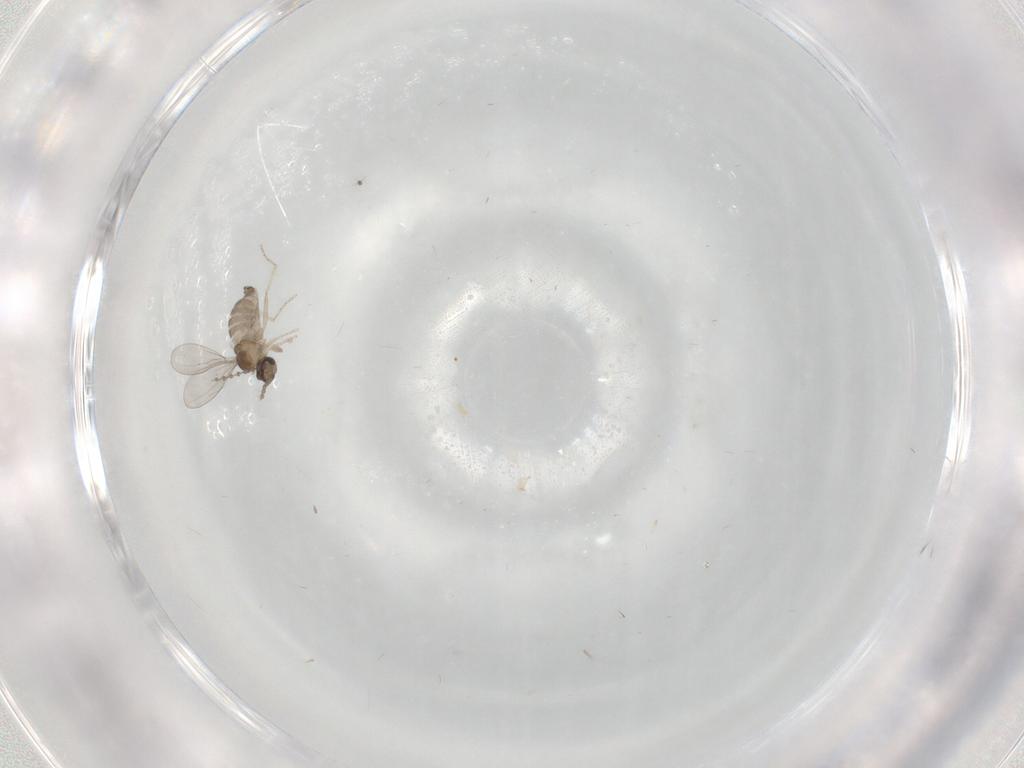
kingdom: Animalia
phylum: Arthropoda
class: Insecta
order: Diptera
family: Cecidomyiidae
